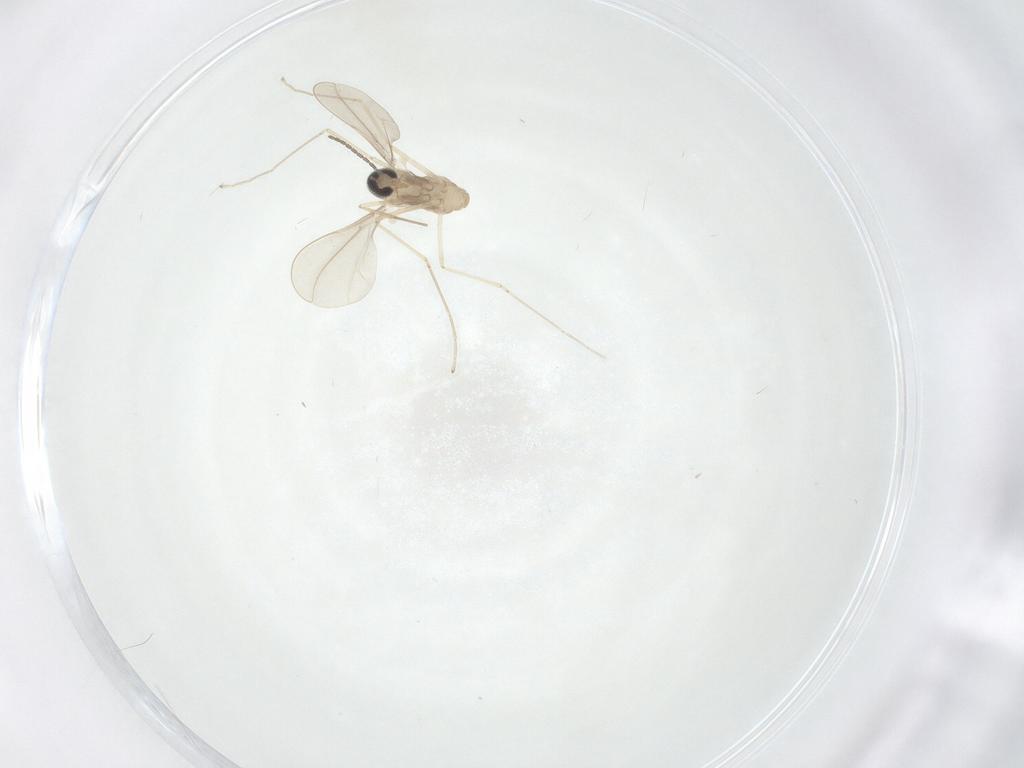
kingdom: Animalia
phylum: Arthropoda
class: Insecta
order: Diptera
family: Cecidomyiidae
